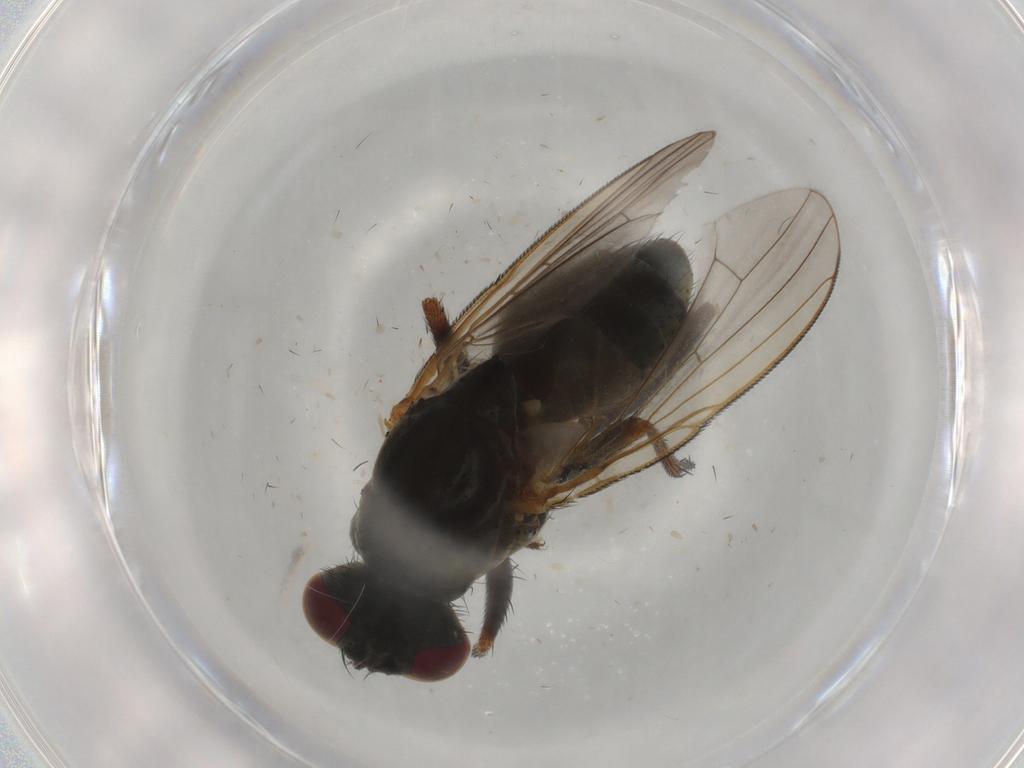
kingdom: Animalia
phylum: Arthropoda
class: Insecta
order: Diptera
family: Muscidae
